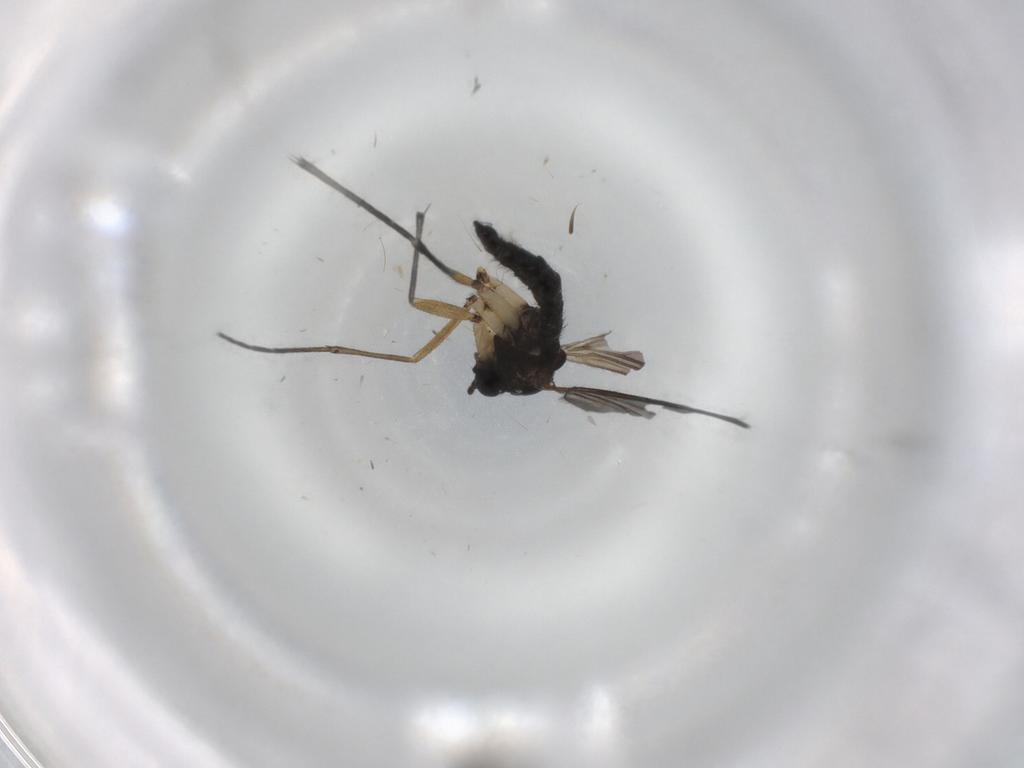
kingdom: Animalia
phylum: Arthropoda
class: Insecta
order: Diptera
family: Sciaridae
